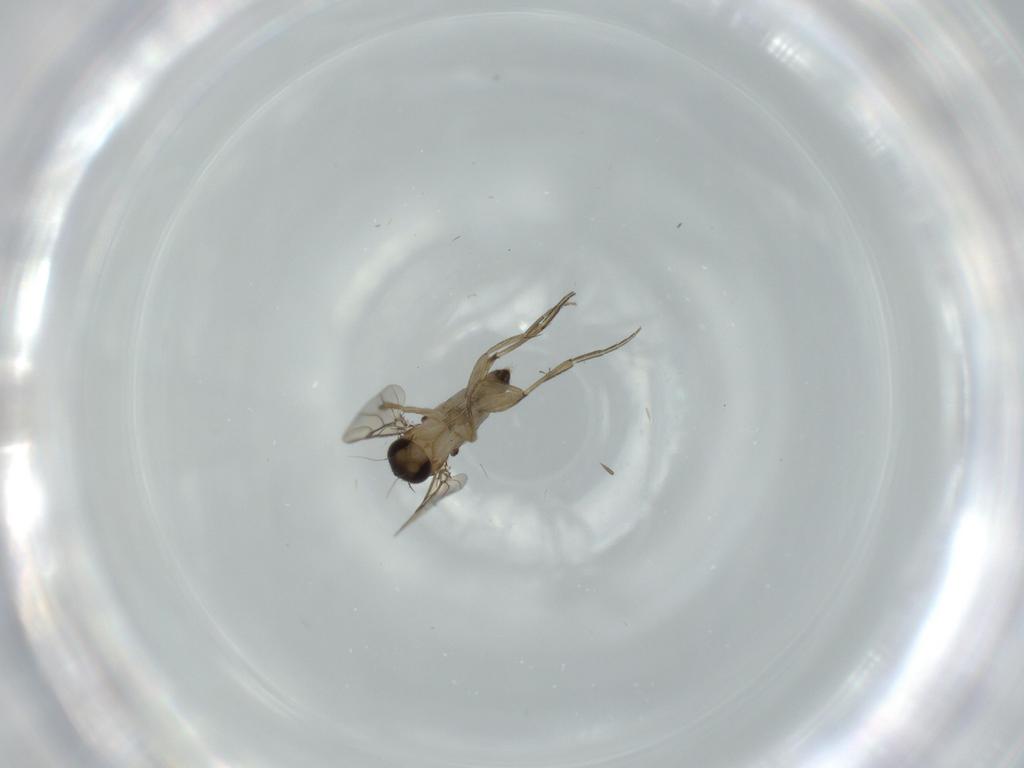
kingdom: Animalia
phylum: Arthropoda
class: Insecta
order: Diptera
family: Phoridae
